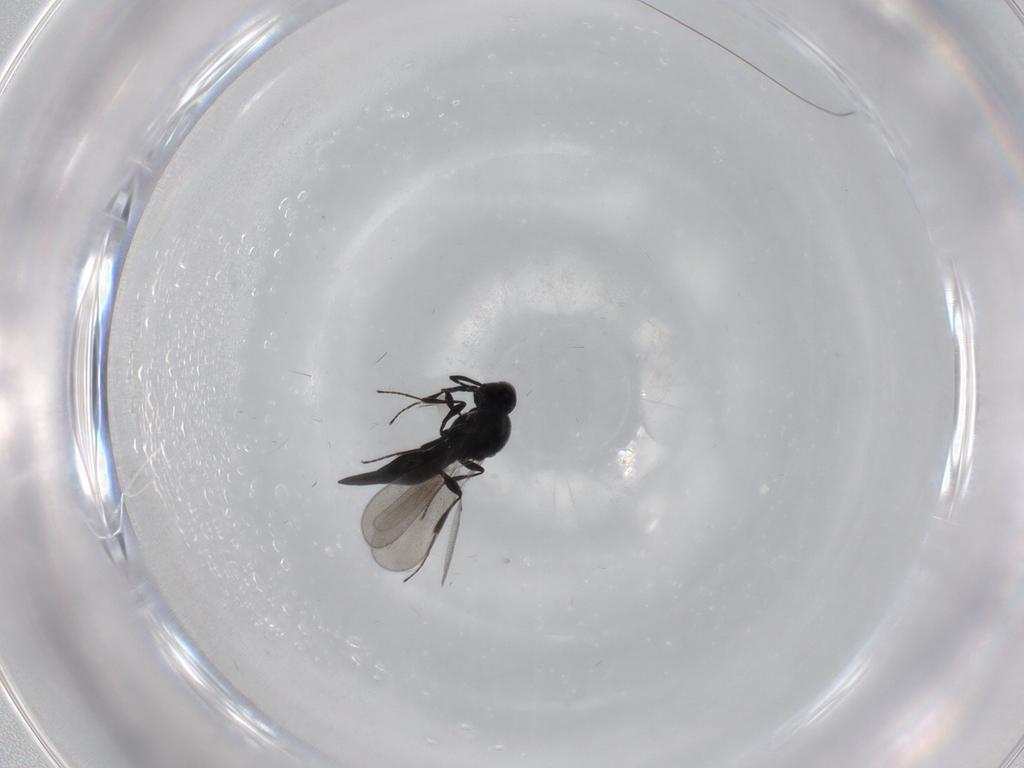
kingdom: Animalia
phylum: Arthropoda
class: Insecta
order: Diptera
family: Mythicomyiidae
